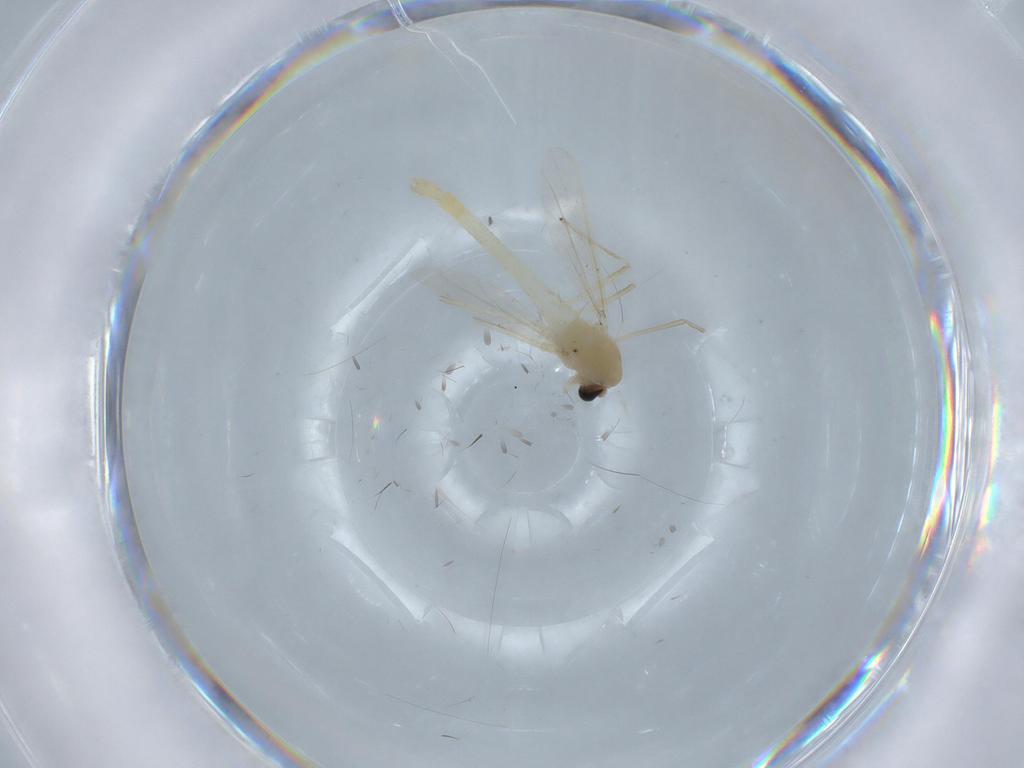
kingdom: Animalia
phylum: Arthropoda
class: Insecta
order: Diptera
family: Chironomidae
